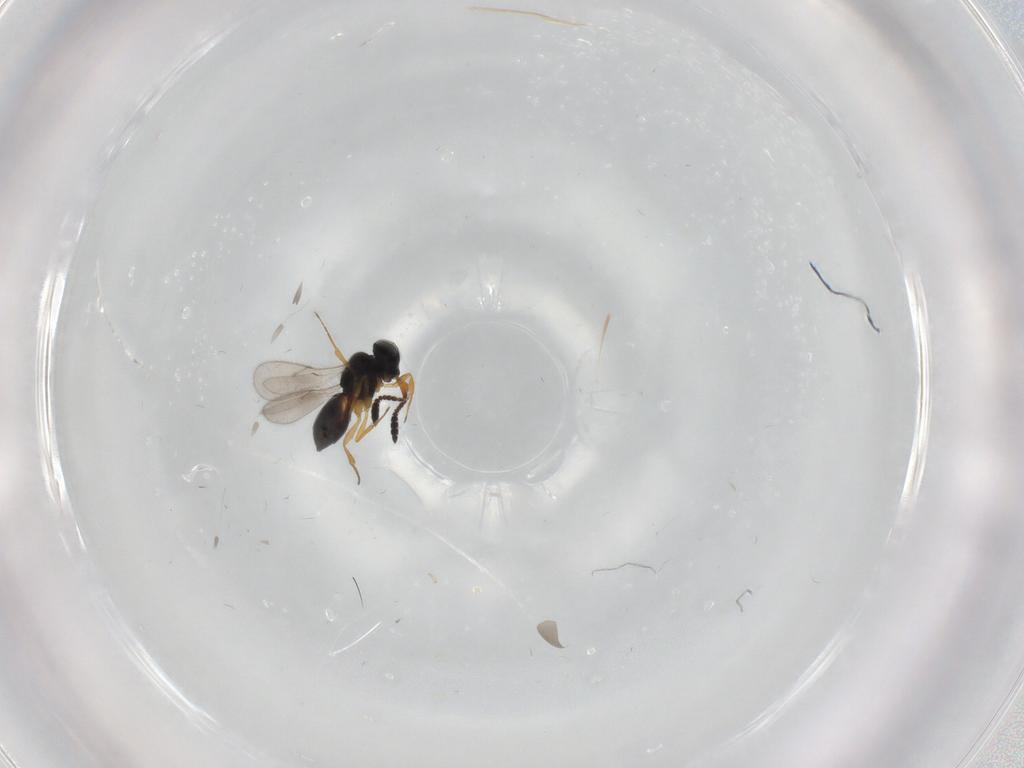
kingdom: Animalia
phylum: Arthropoda
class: Insecta
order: Hymenoptera
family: Scelionidae
